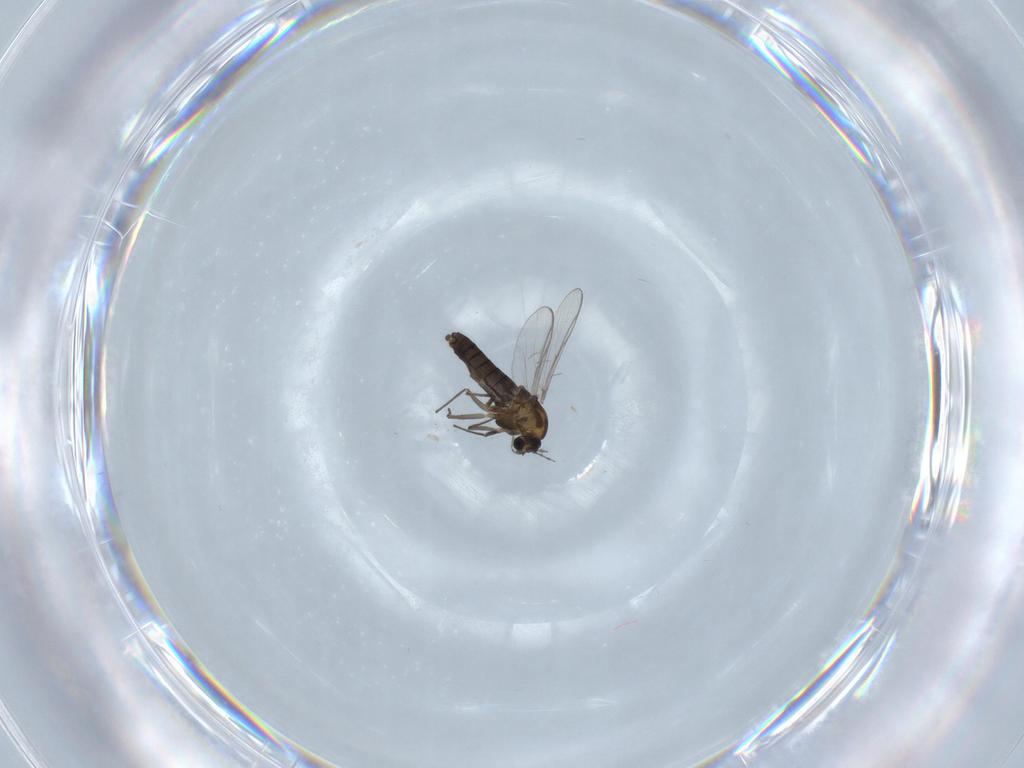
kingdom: Animalia
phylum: Arthropoda
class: Insecta
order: Diptera
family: Chironomidae
